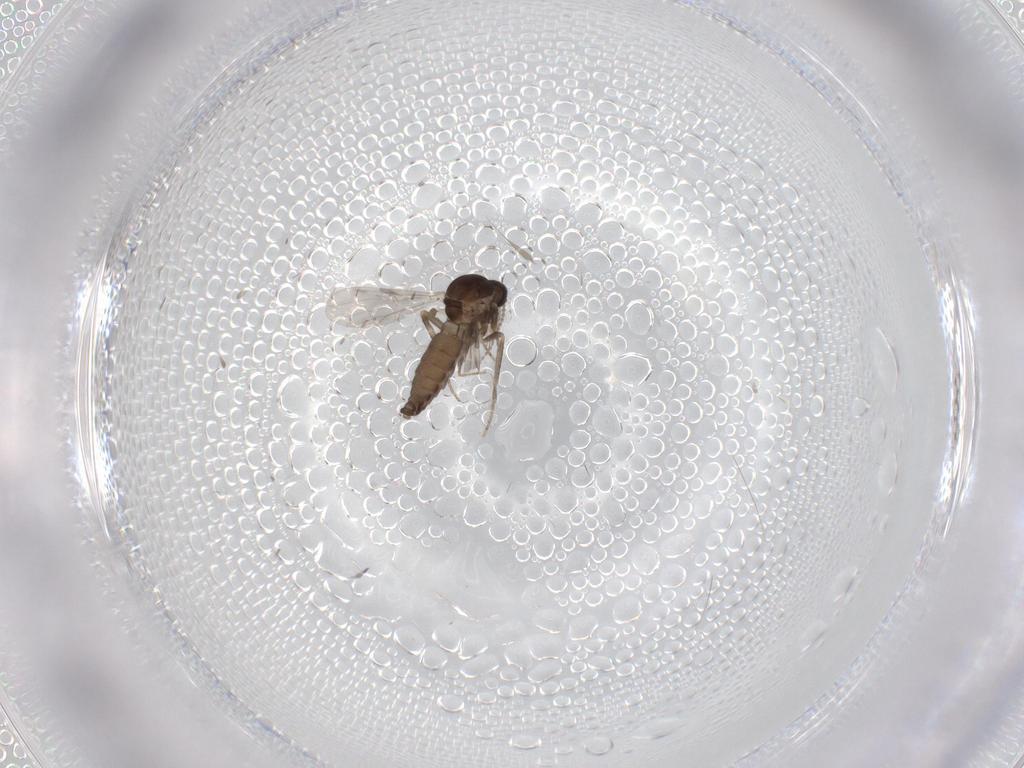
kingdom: Animalia
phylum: Arthropoda
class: Insecta
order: Diptera
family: Ceratopogonidae
